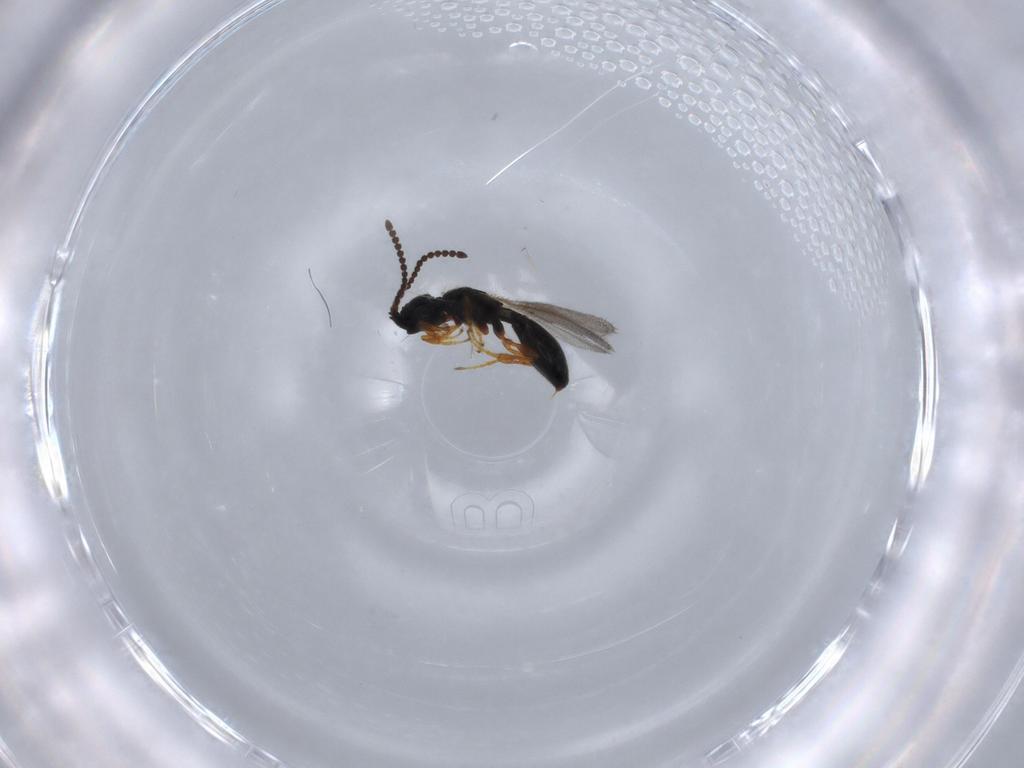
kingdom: Animalia
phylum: Arthropoda
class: Insecta
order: Hymenoptera
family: Diapriidae
